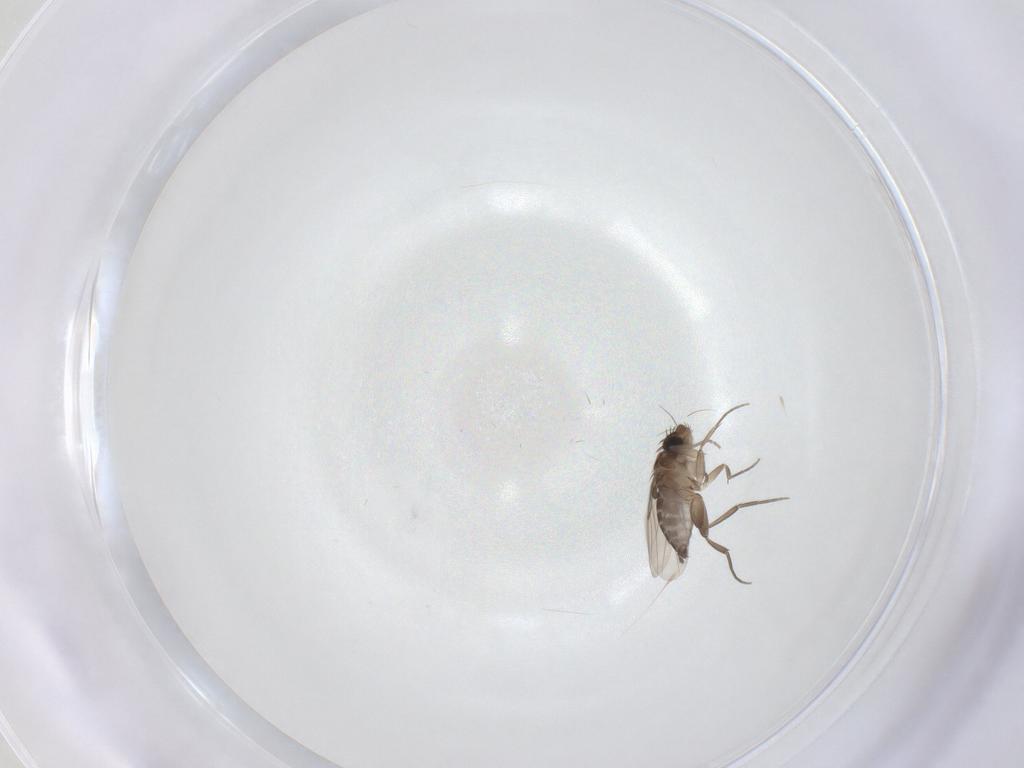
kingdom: Animalia
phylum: Arthropoda
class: Insecta
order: Diptera
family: Phoridae
